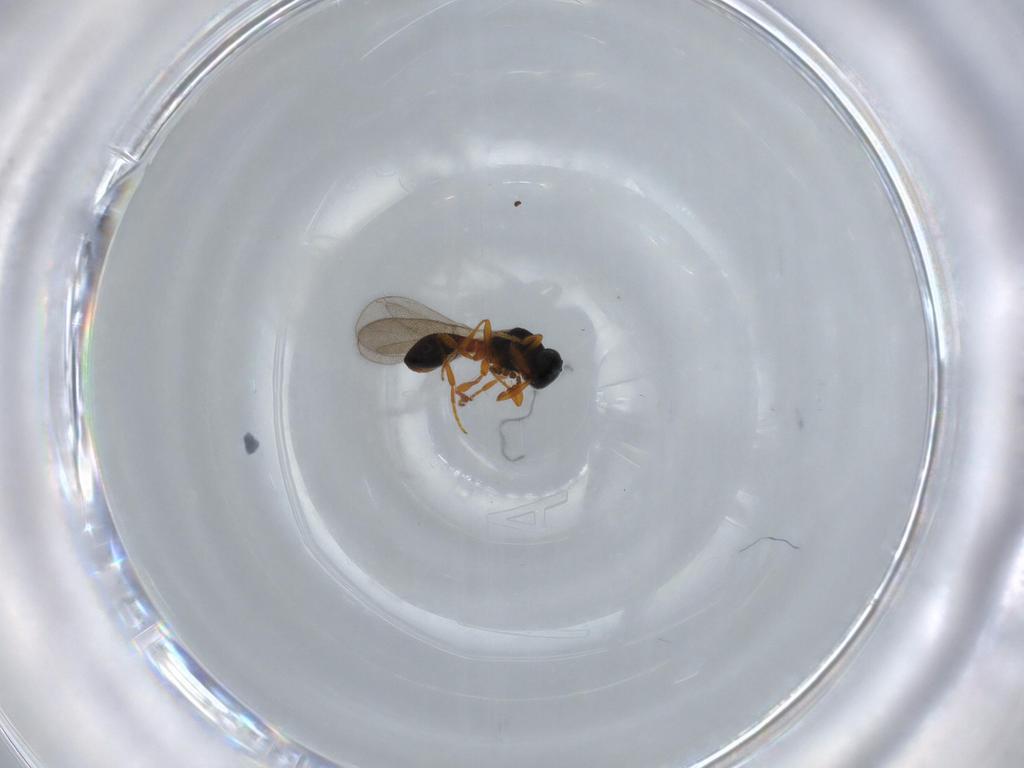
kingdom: Animalia
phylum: Arthropoda
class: Insecta
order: Hymenoptera
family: Platygastridae
